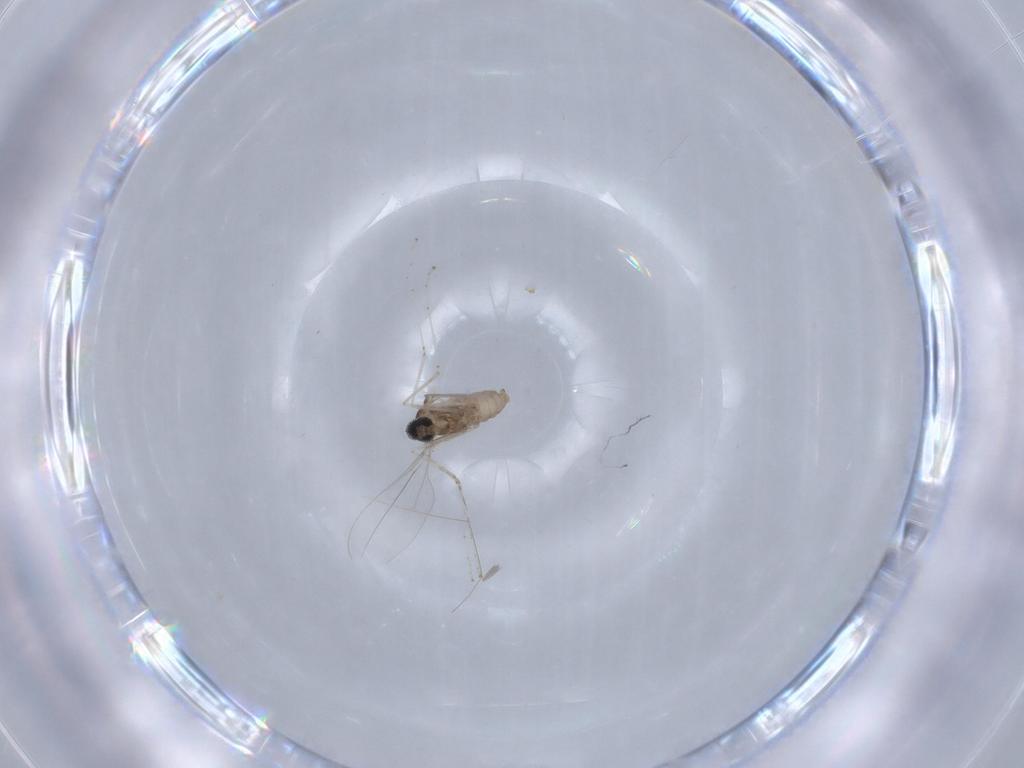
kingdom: Animalia
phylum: Arthropoda
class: Insecta
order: Diptera
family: Cecidomyiidae
